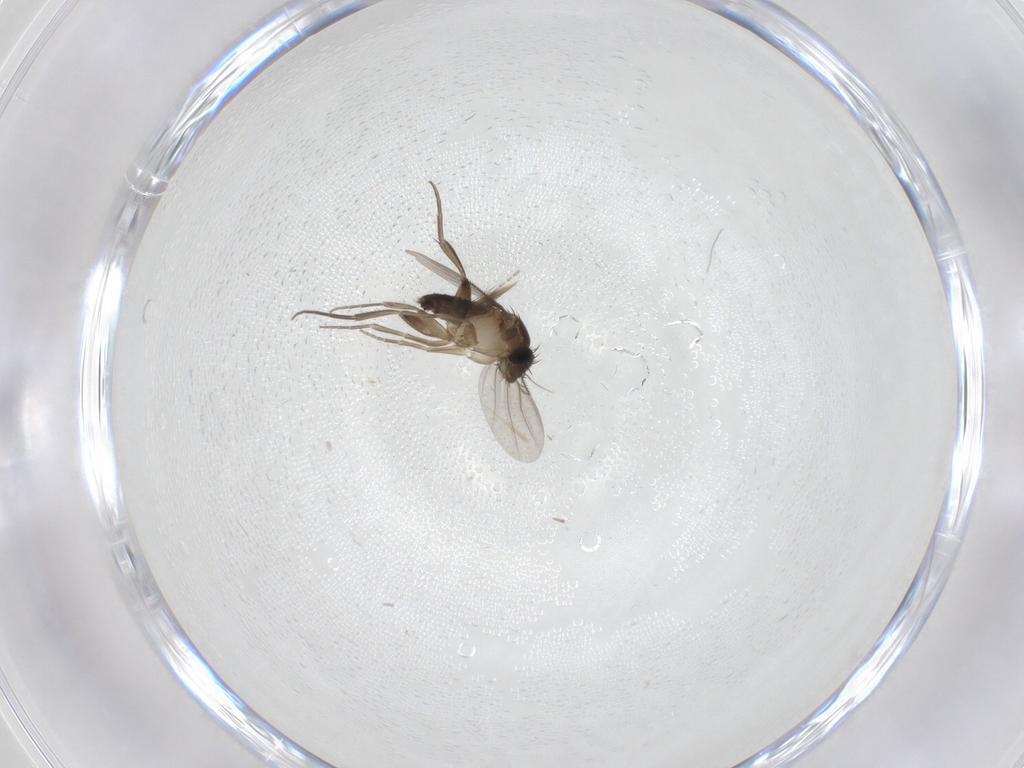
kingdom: Animalia
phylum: Arthropoda
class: Insecta
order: Diptera
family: Phoridae
